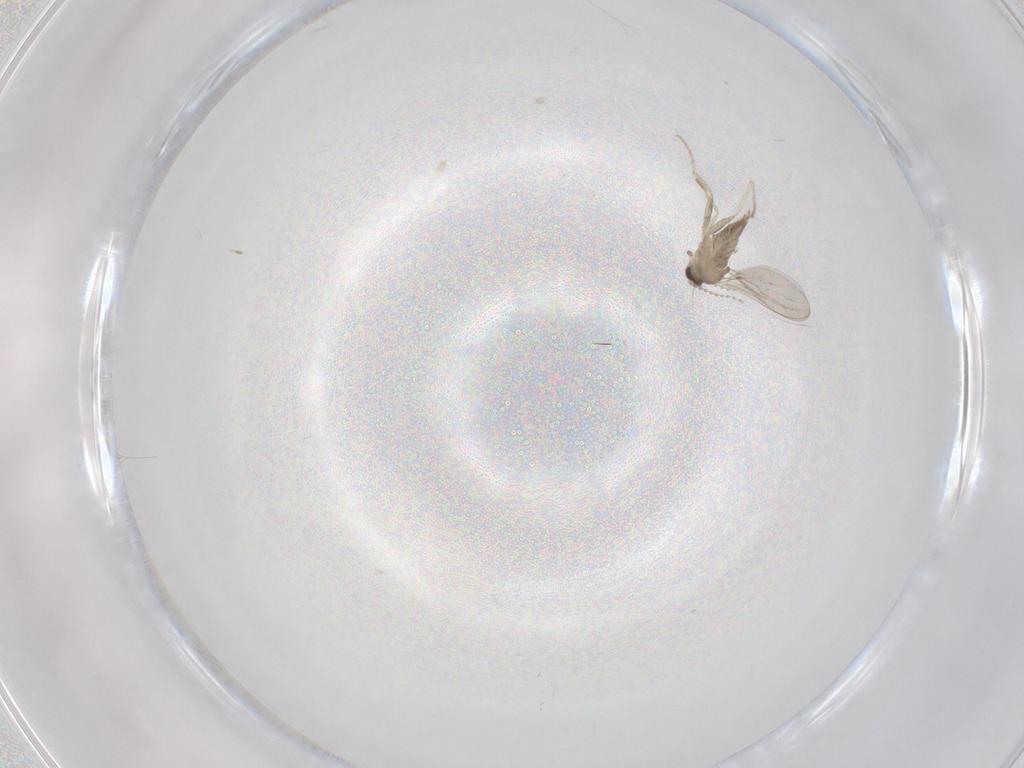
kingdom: Animalia
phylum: Arthropoda
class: Insecta
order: Diptera
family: Cecidomyiidae
